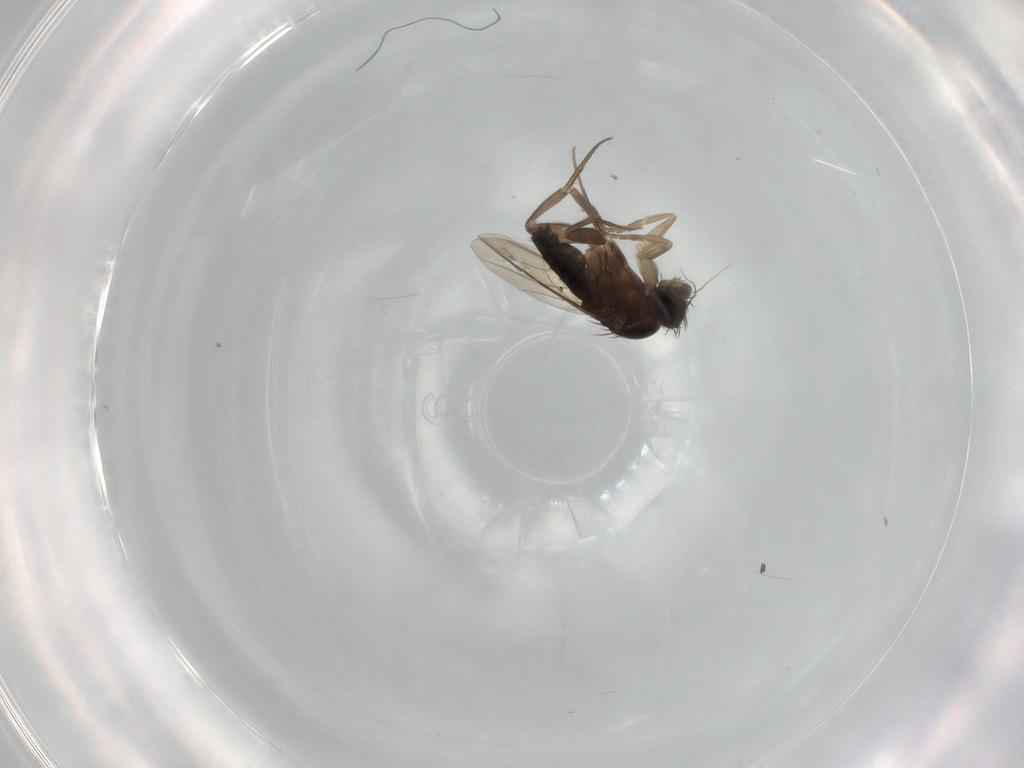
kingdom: Animalia
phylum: Arthropoda
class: Insecta
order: Diptera
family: Phoridae
